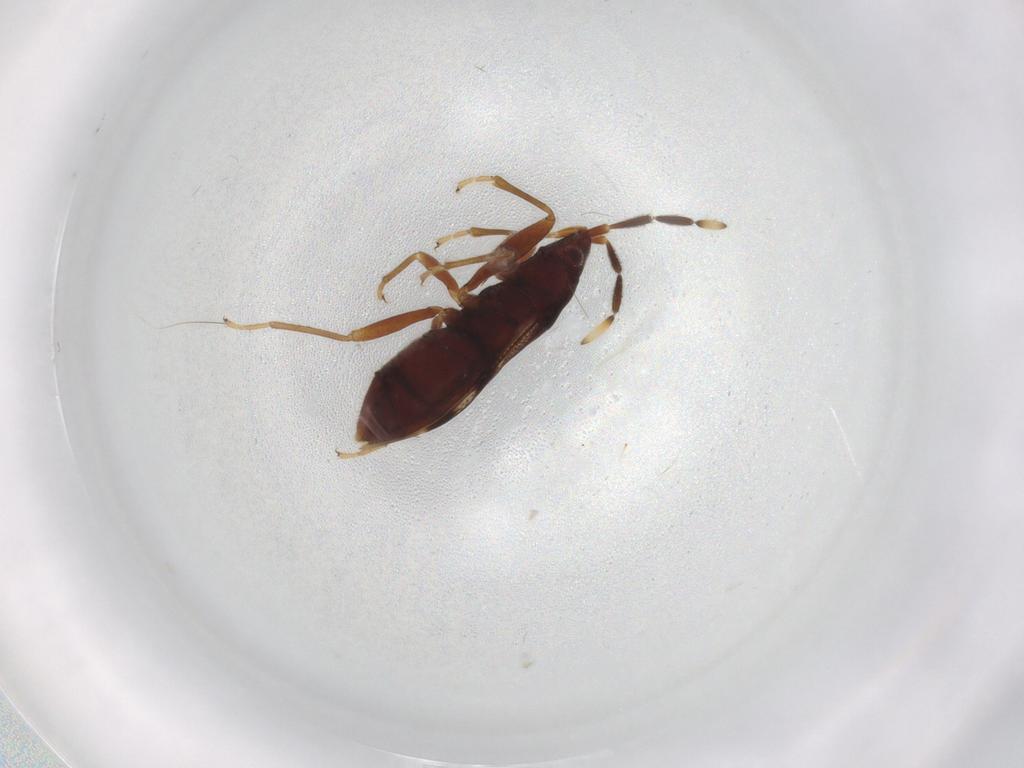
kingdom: Animalia
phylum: Arthropoda
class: Insecta
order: Hemiptera
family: Rhyparochromidae
